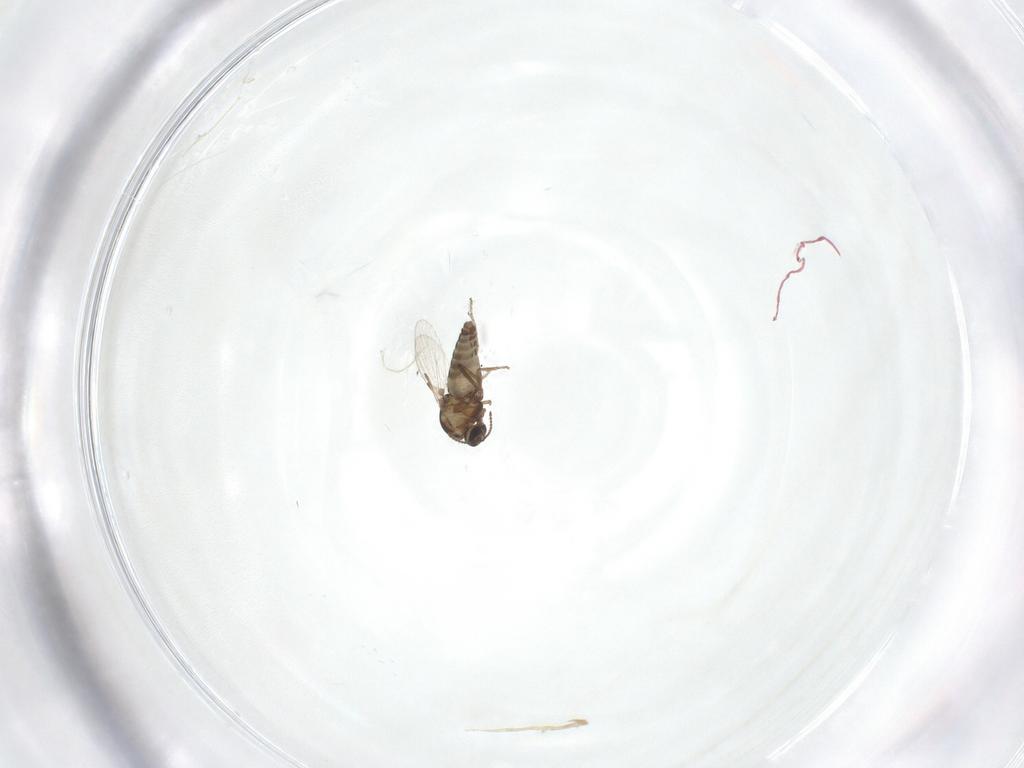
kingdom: Animalia
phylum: Arthropoda
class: Insecta
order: Diptera
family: Ceratopogonidae
